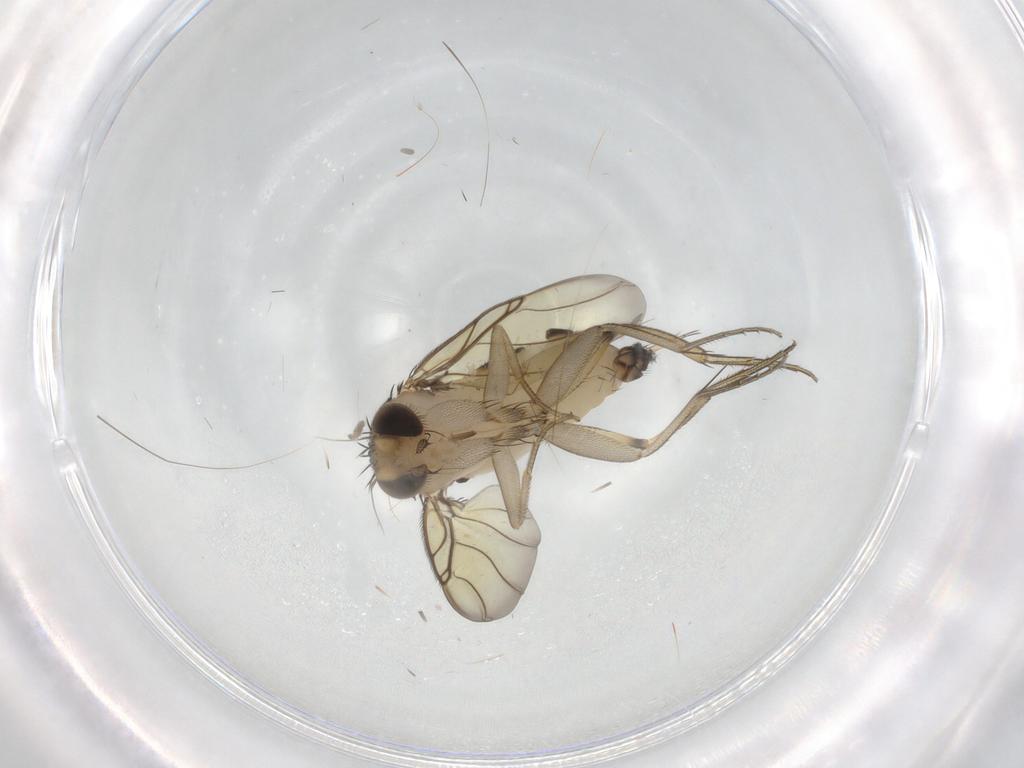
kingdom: Animalia
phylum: Arthropoda
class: Insecta
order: Diptera
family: Phoridae
